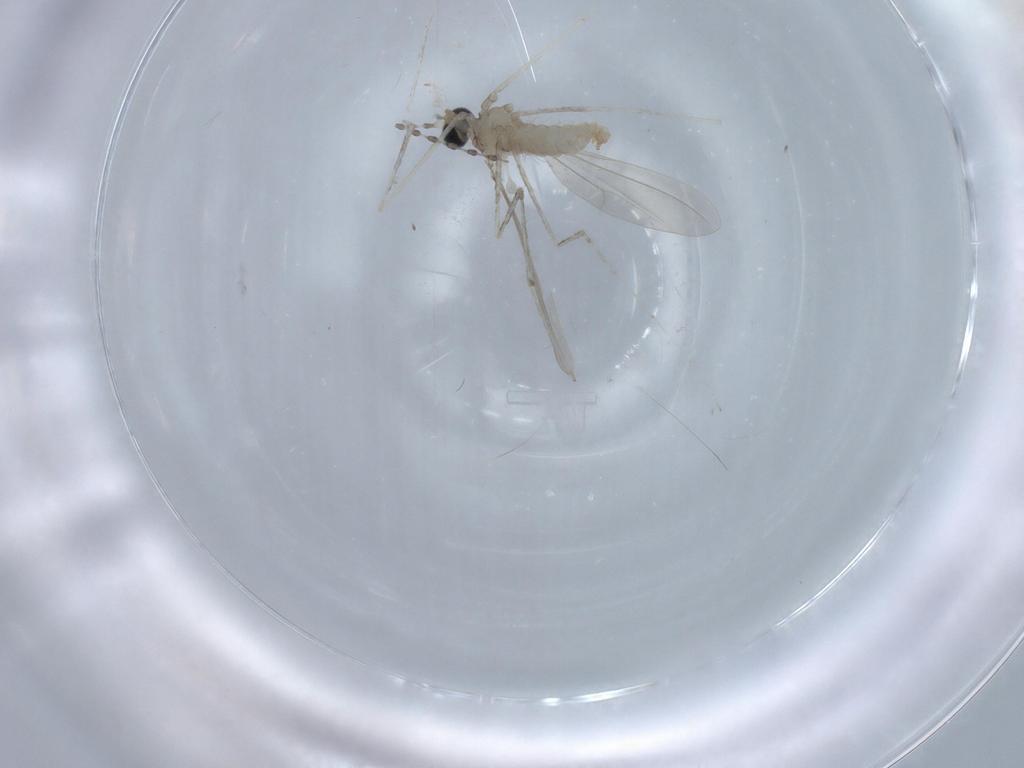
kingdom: Animalia
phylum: Arthropoda
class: Insecta
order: Diptera
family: Cecidomyiidae
